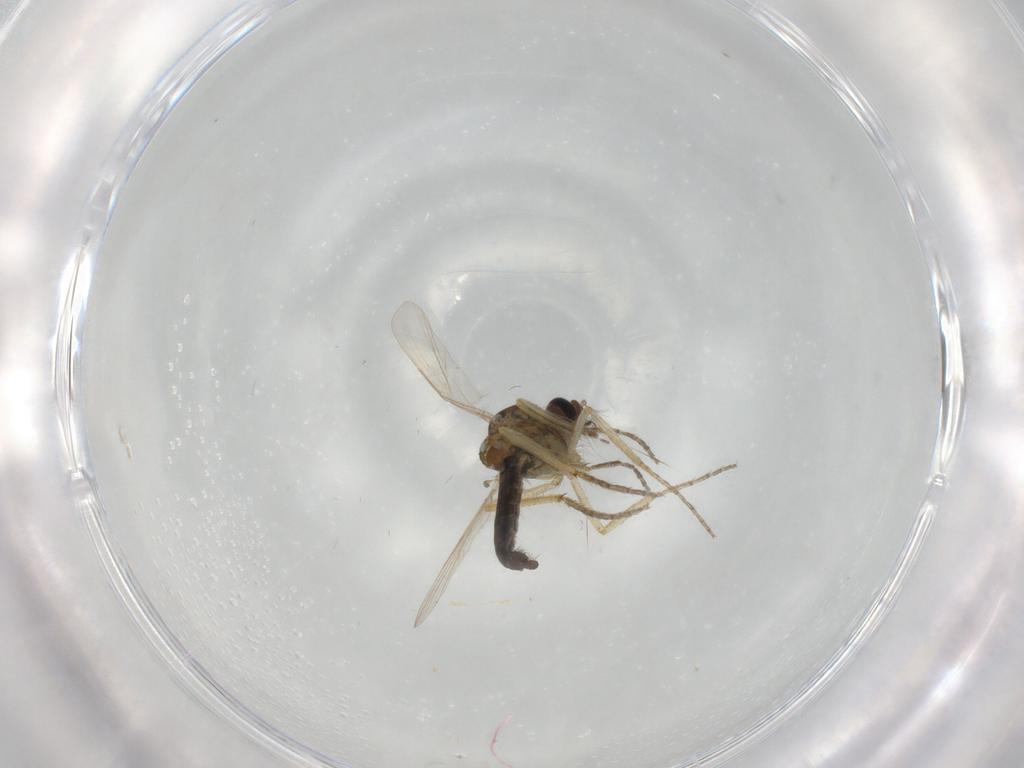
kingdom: Animalia
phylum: Arthropoda
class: Insecta
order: Diptera
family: Ceratopogonidae
